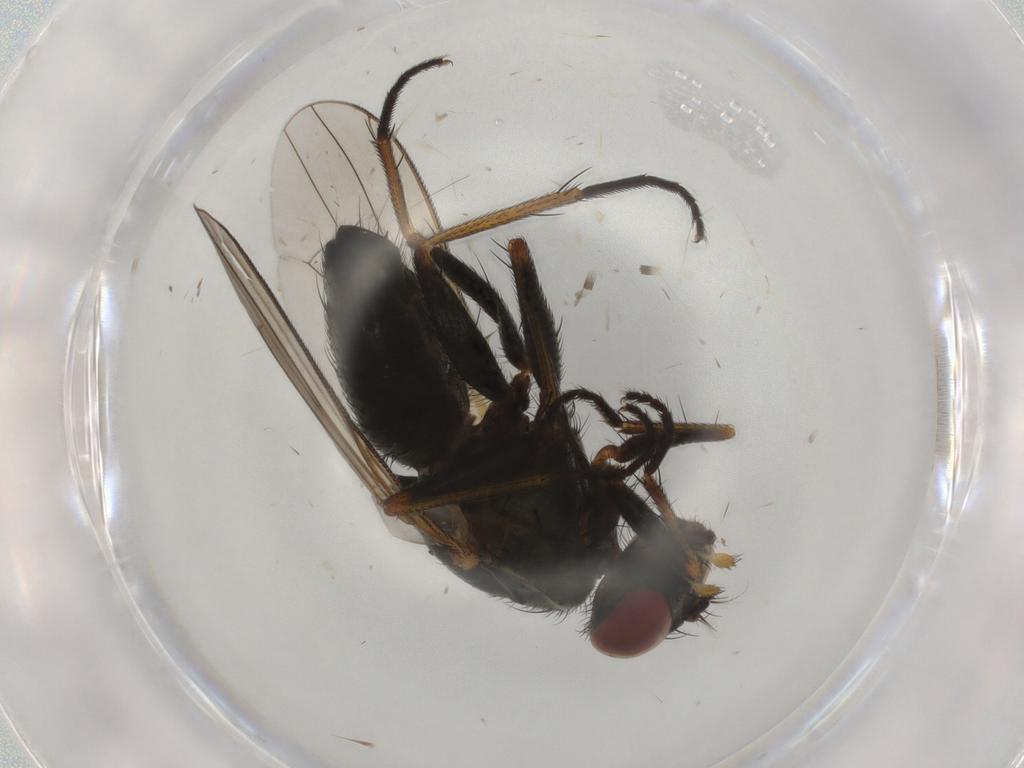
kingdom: Animalia
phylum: Arthropoda
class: Insecta
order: Diptera
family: Muscidae
